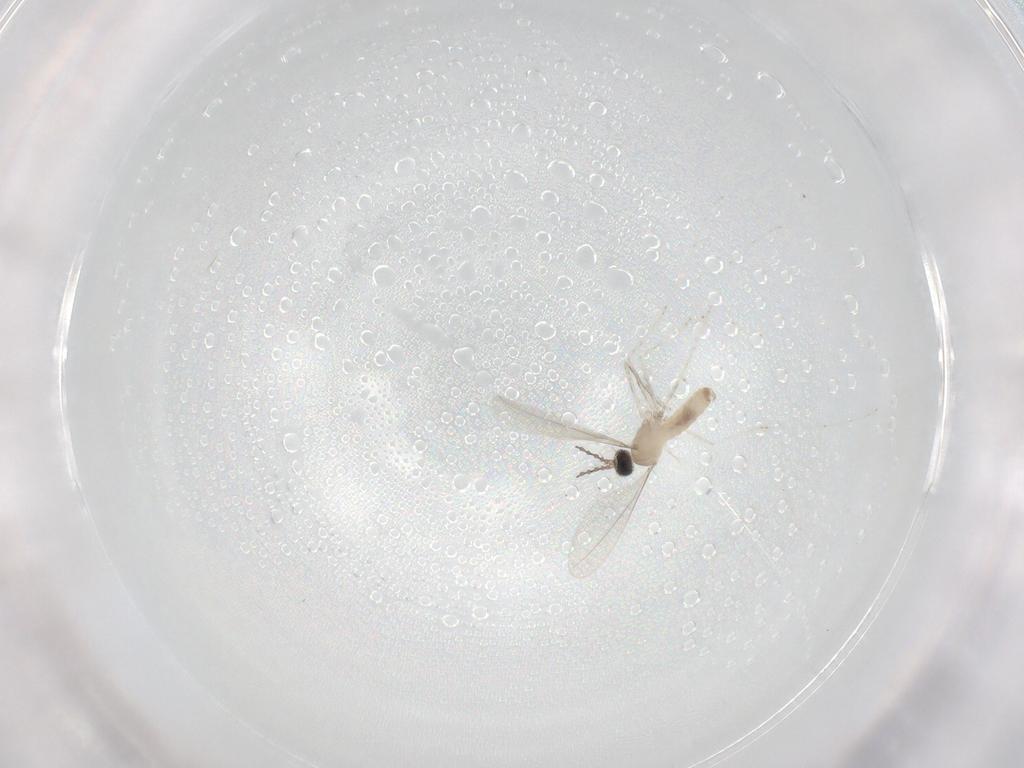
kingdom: Animalia
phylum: Arthropoda
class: Insecta
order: Diptera
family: Cecidomyiidae
